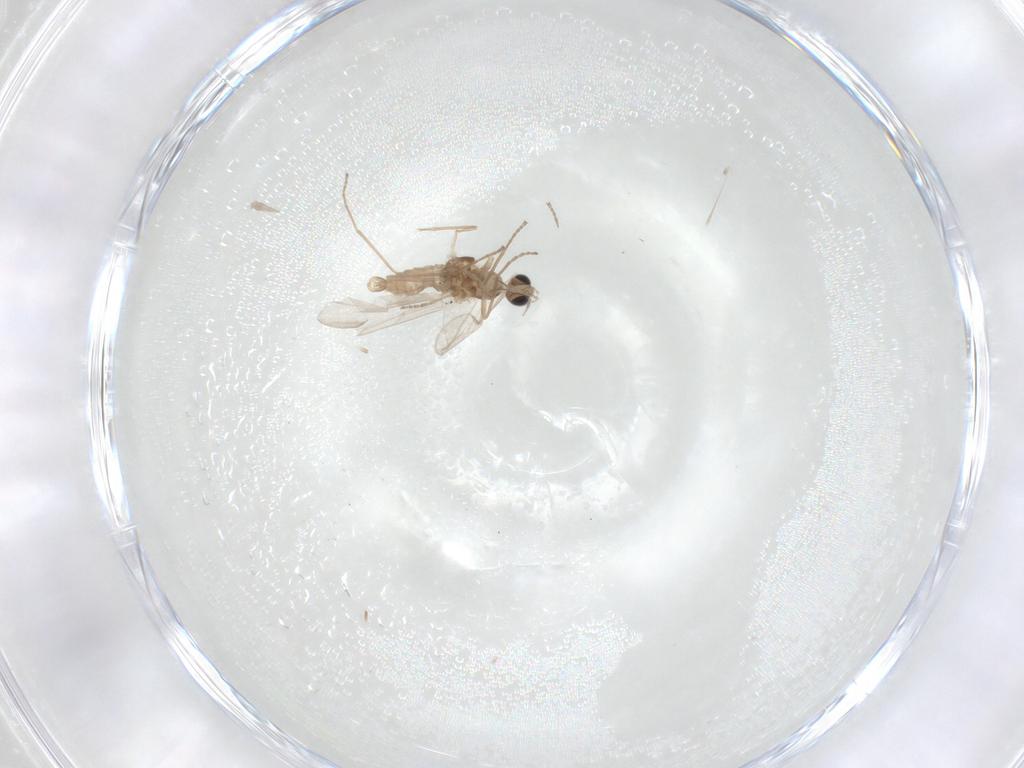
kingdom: Animalia
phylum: Arthropoda
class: Insecta
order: Diptera
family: Cecidomyiidae
